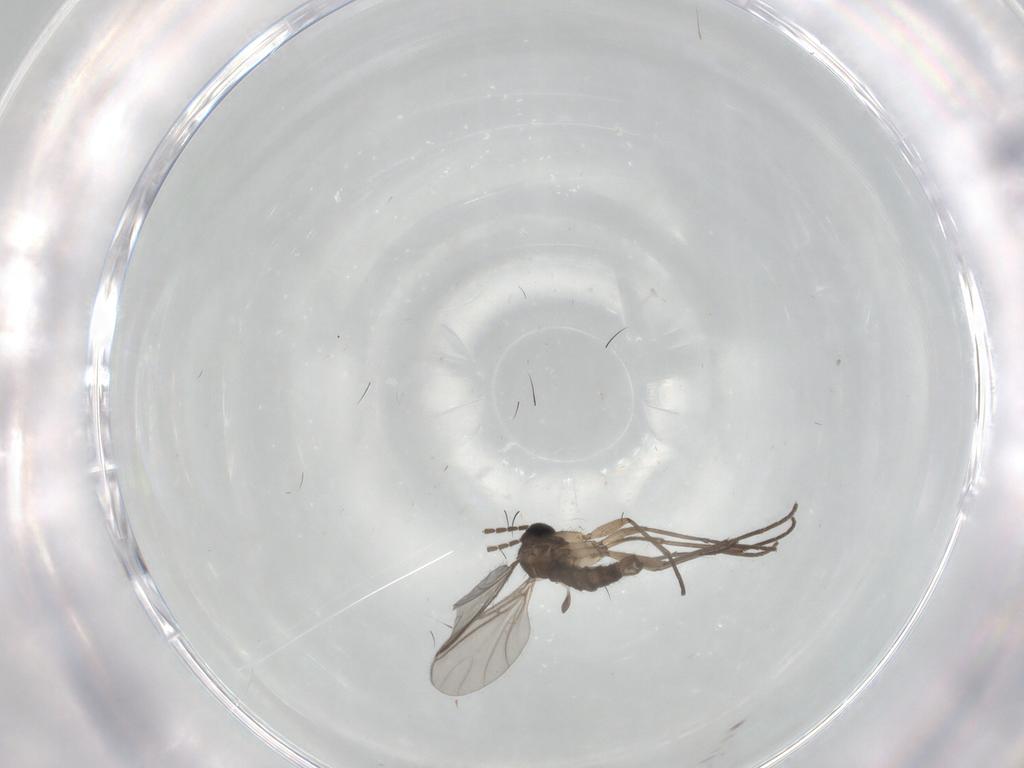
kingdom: Animalia
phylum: Arthropoda
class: Insecta
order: Diptera
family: Sciaridae
